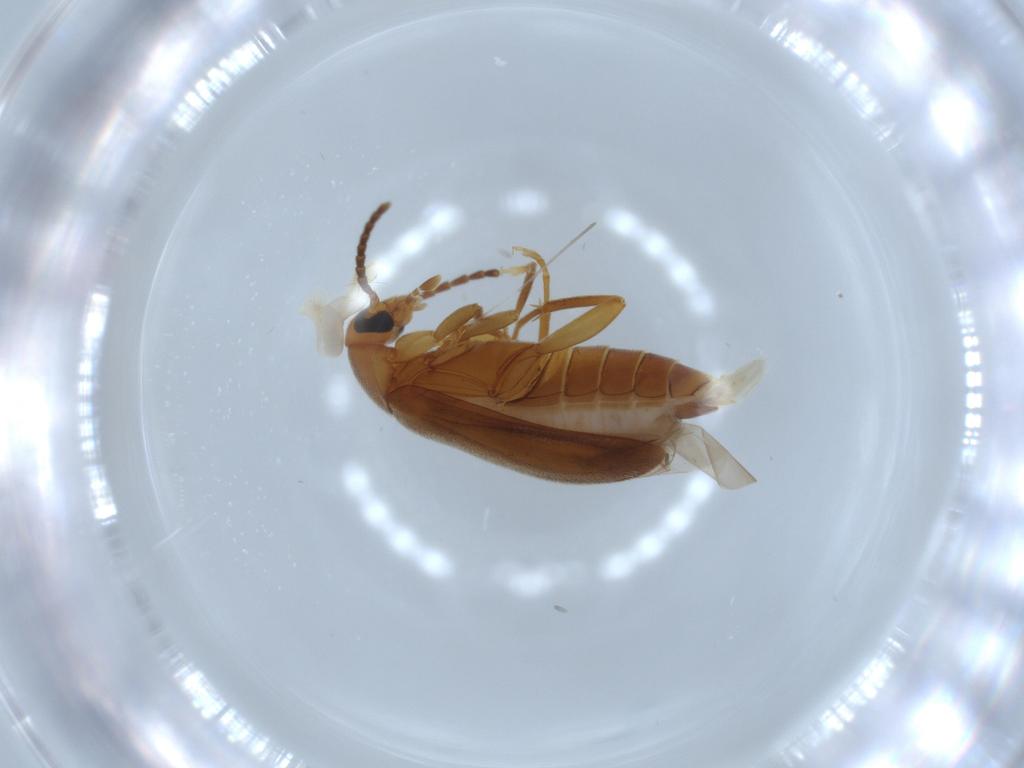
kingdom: Animalia
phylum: Arthropoda
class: Insecta
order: Coleoptera
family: Scraptiidae
